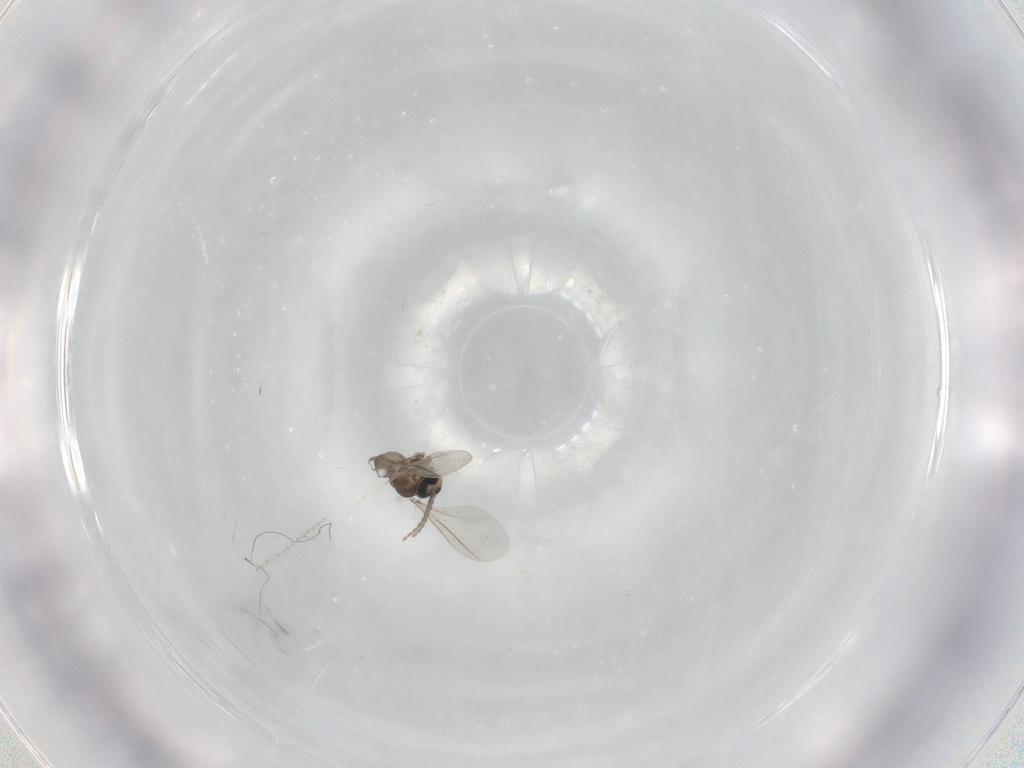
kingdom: Animalia
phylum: Arthropoda
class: Insecta
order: Diptera
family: Cecidomyiidae
